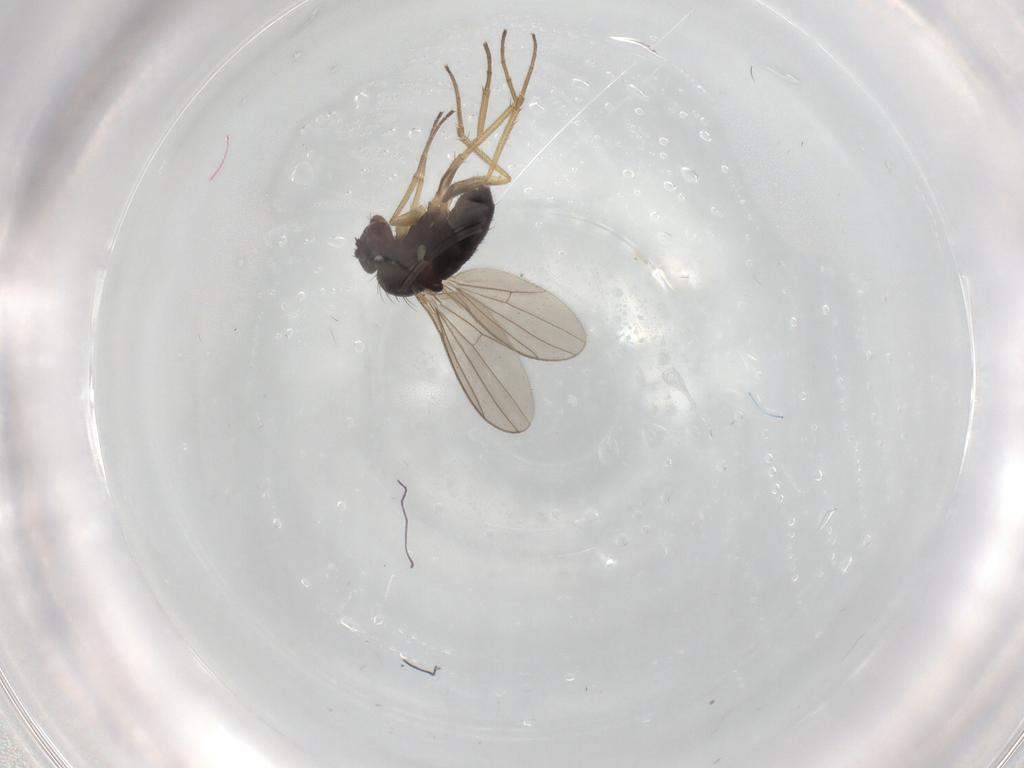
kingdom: Animalia
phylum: Arthropoda
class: Insecta
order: Diptera
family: Dolichopodidae
